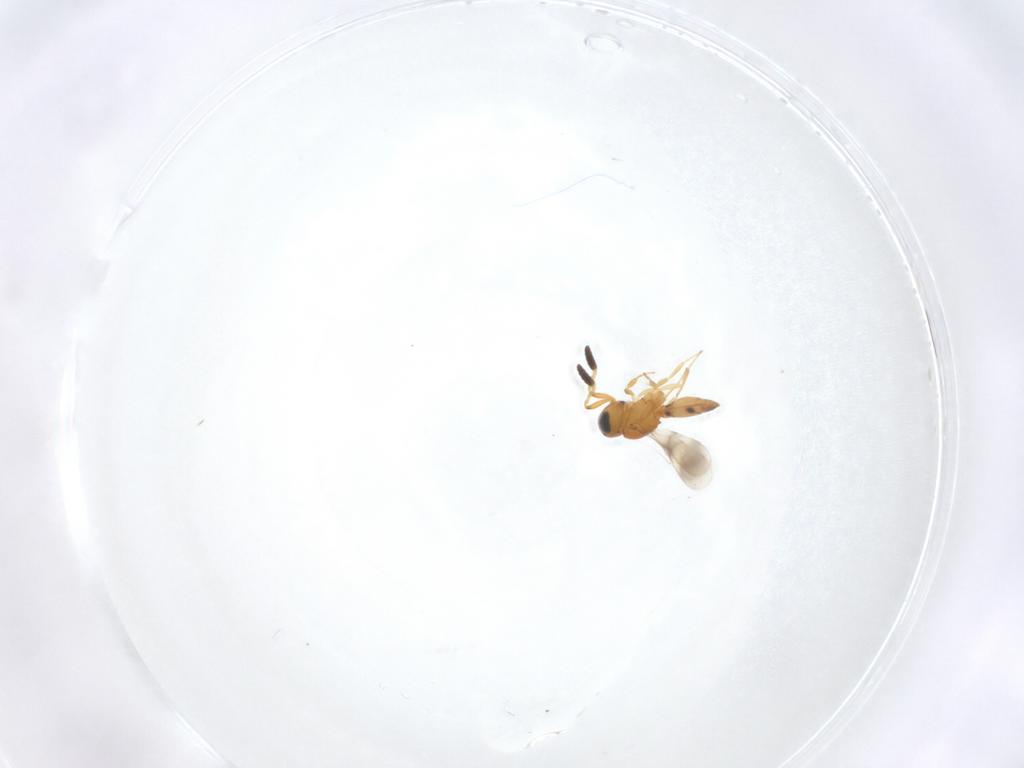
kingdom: Animalia
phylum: Arthropoda
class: Insecta
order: Hymenoptera
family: Scelionidae
